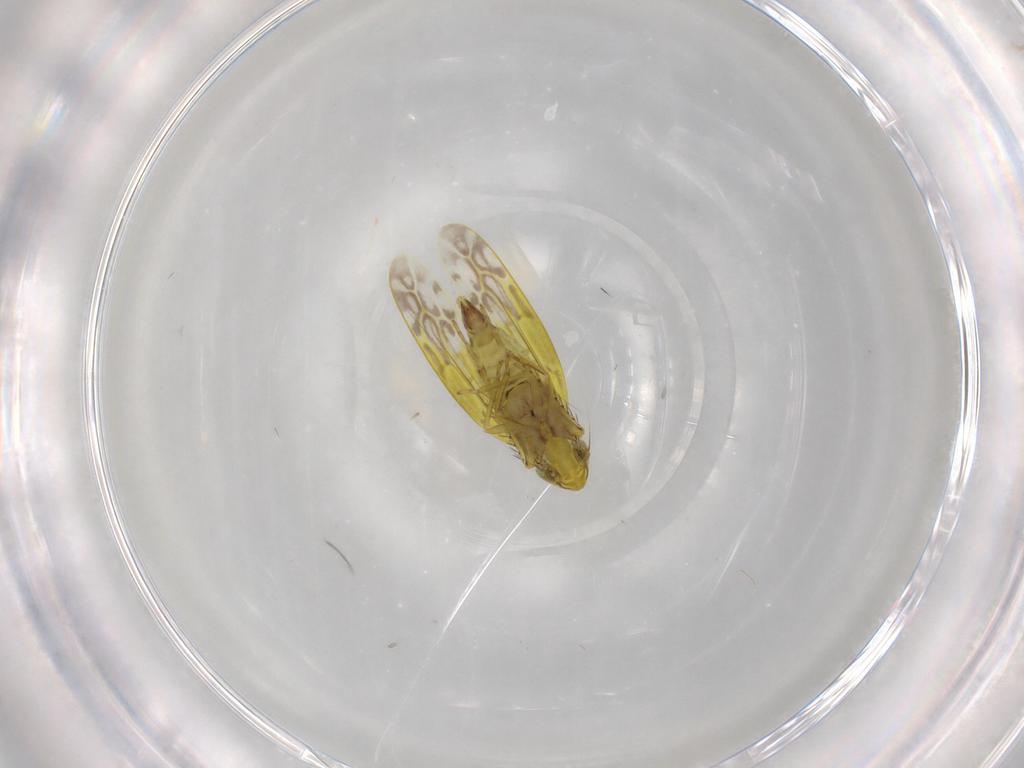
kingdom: Animalia
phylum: Arthropoda
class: Insecta
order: Hemiptera
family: Cicadellidae
